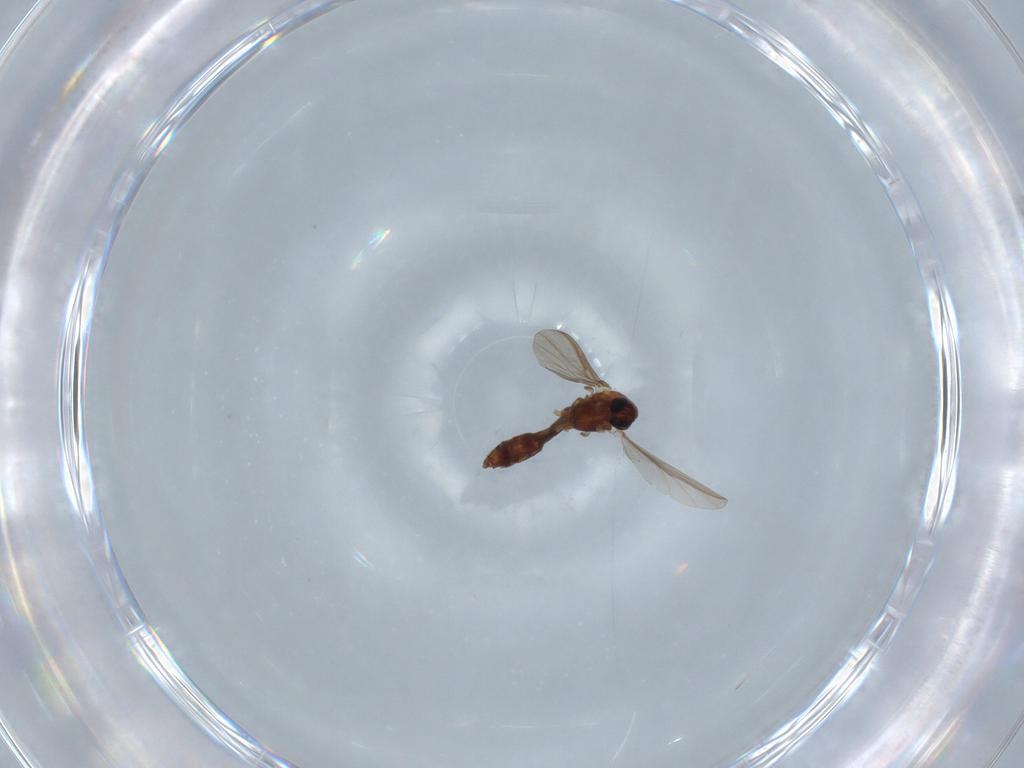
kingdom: Animalia
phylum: Arthropoda
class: Insecta
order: Diptera
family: Chironomidae
